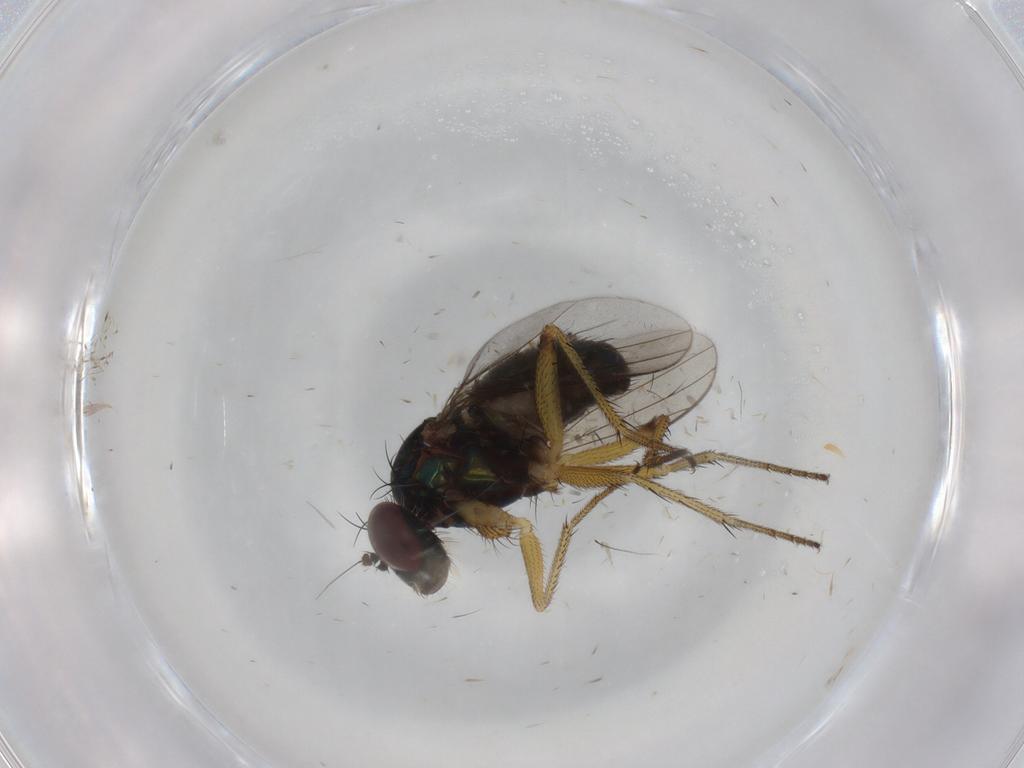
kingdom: Animalia
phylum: Arthropoda
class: Insecta
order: Diptera
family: Dolichopodidae
